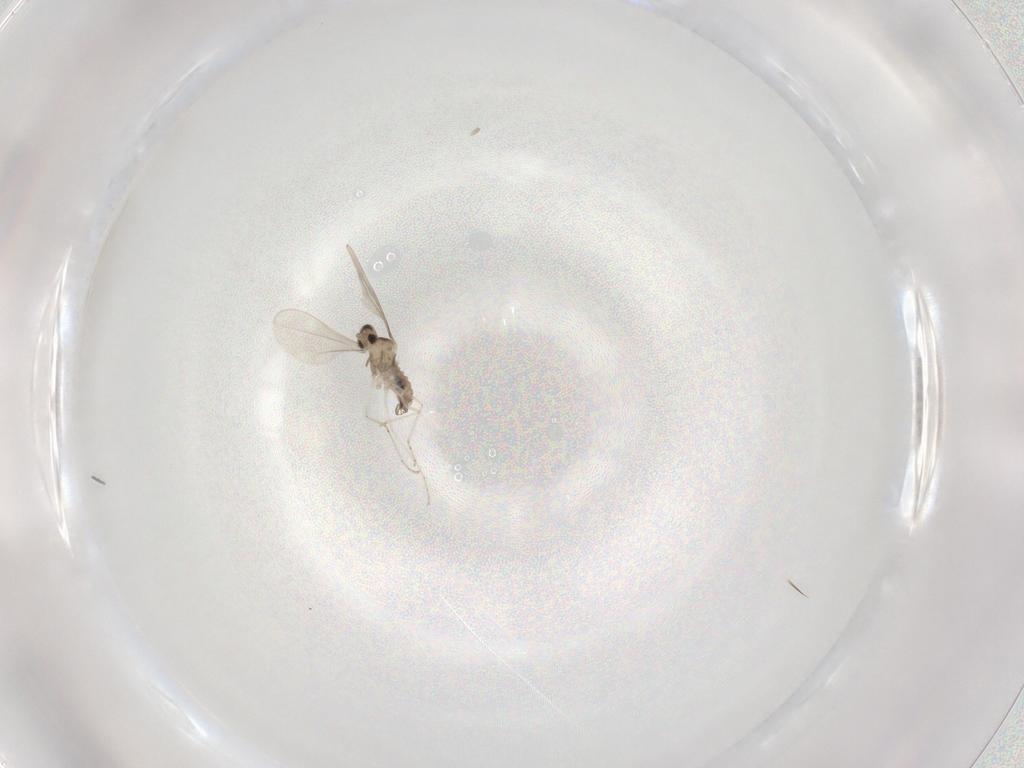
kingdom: Animalia
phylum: Arthropoda
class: Insecta
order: Diptera
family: Cecidomyiidae
